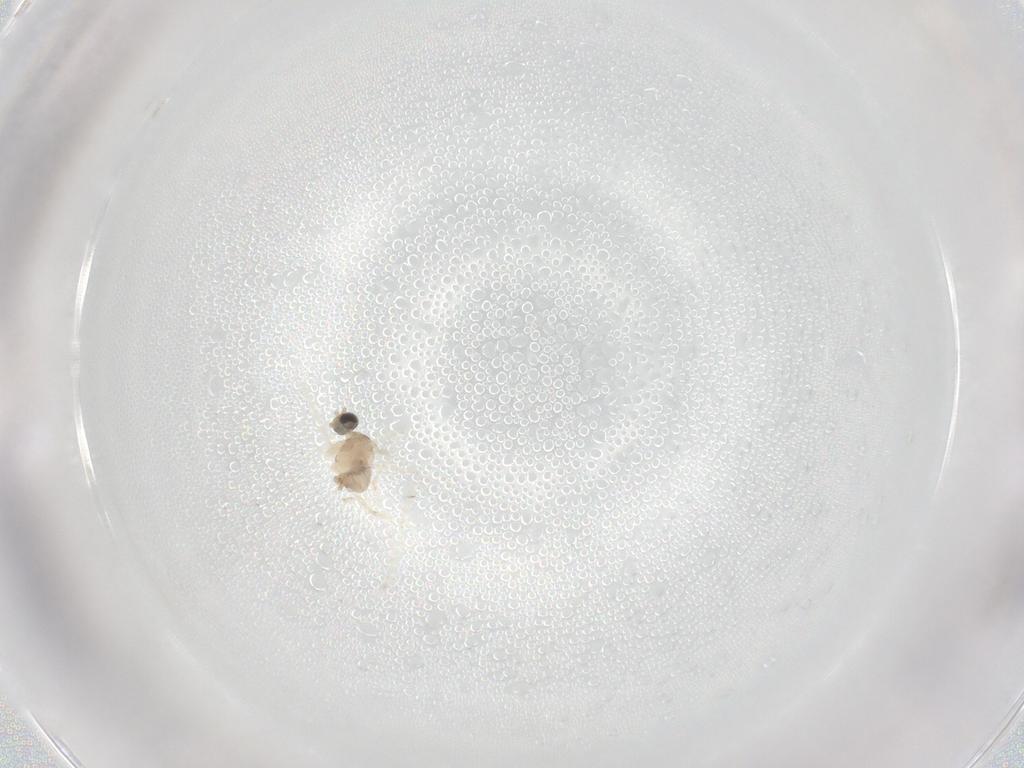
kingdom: Animalia
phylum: Arthropoda
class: Insecta
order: Diptera
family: Cecidomyiidae
